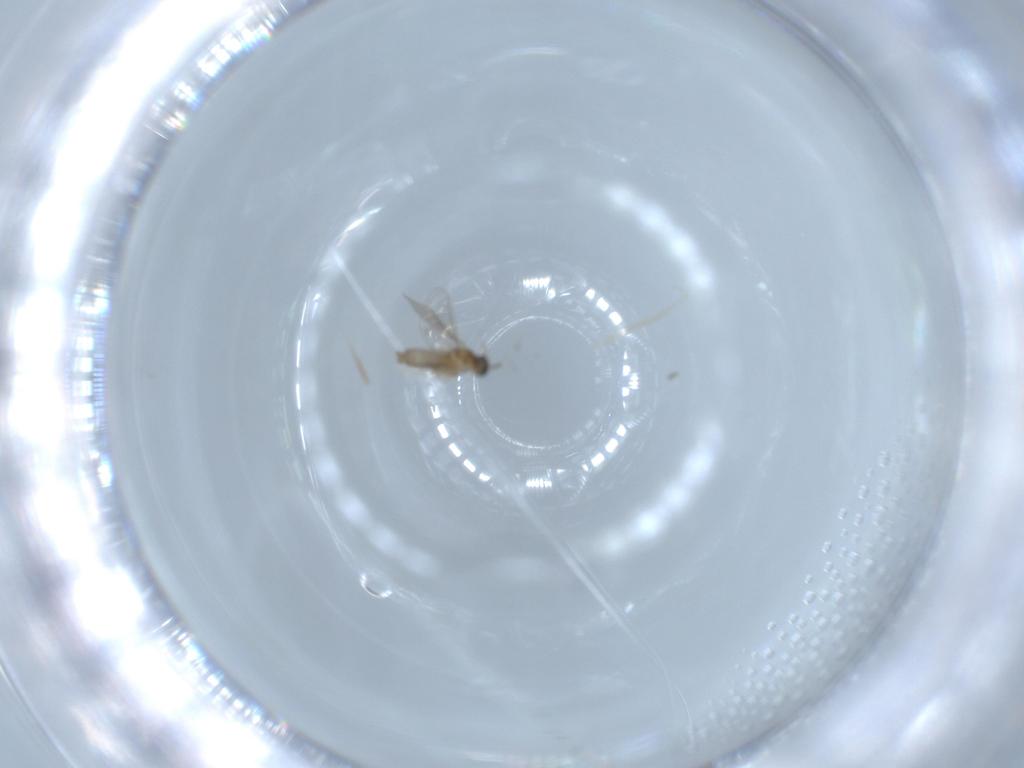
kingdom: Animalia
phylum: Arthropoda
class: Insecta
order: Diptera
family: Cecidomyiidae
